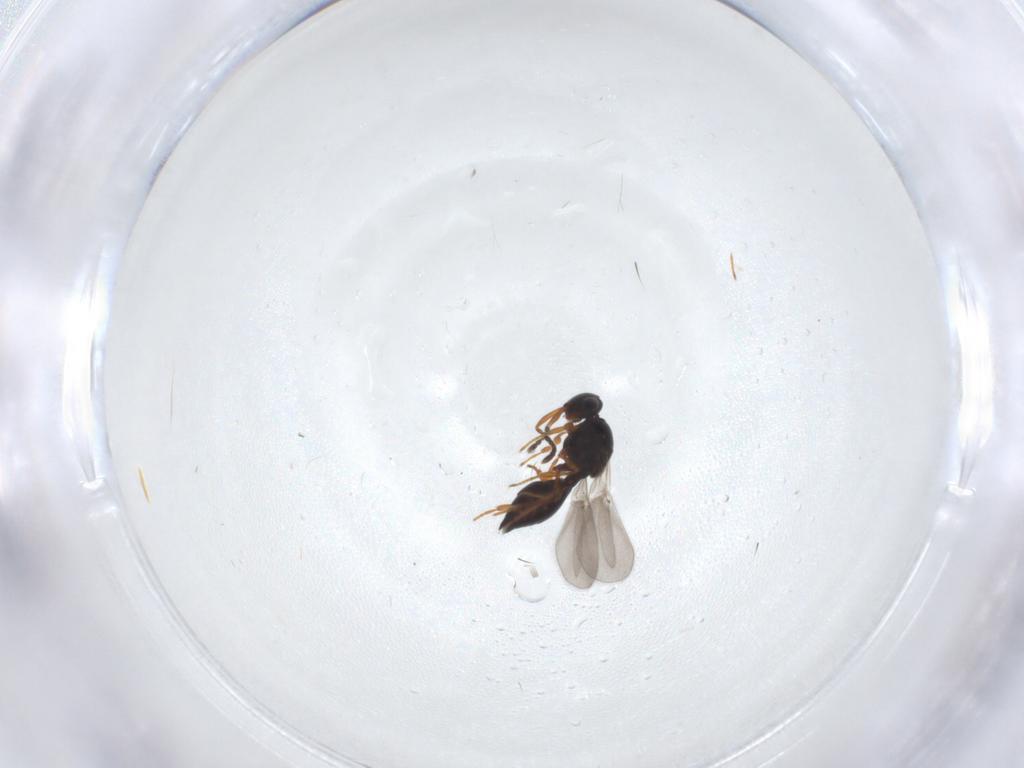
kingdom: Animalia
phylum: Arthropoda
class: Insecta
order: Hymenoptera
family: Platygastridae
